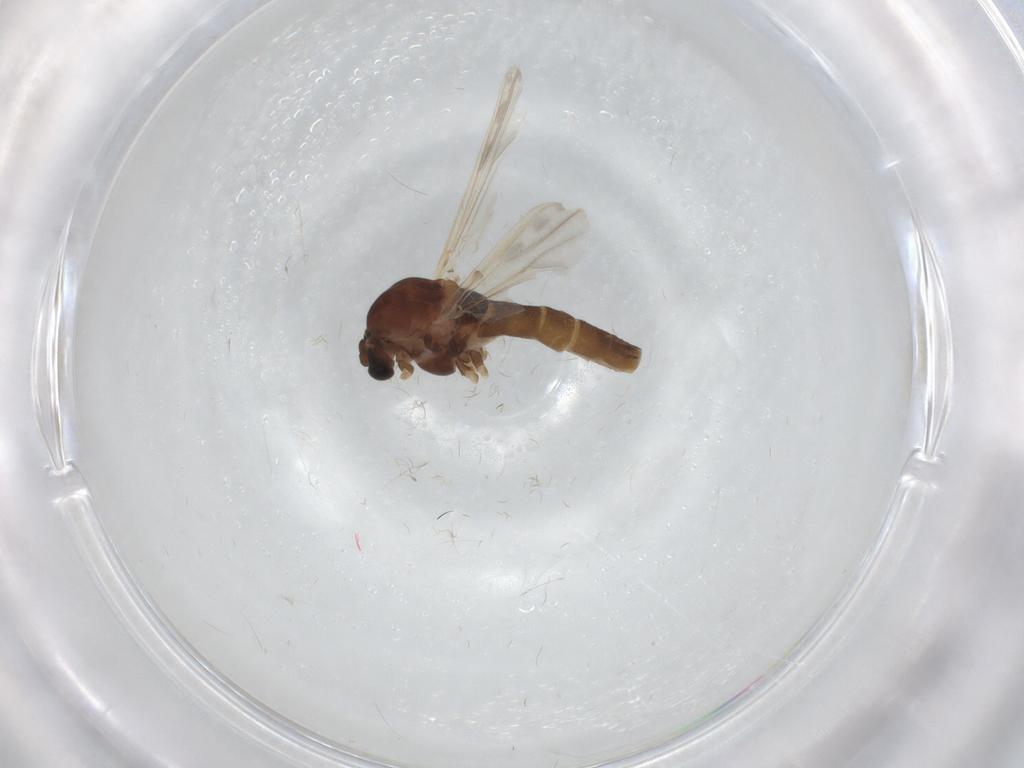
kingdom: Animalia
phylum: Arthropoda
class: Insecta
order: Diptera
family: Chironomidae
